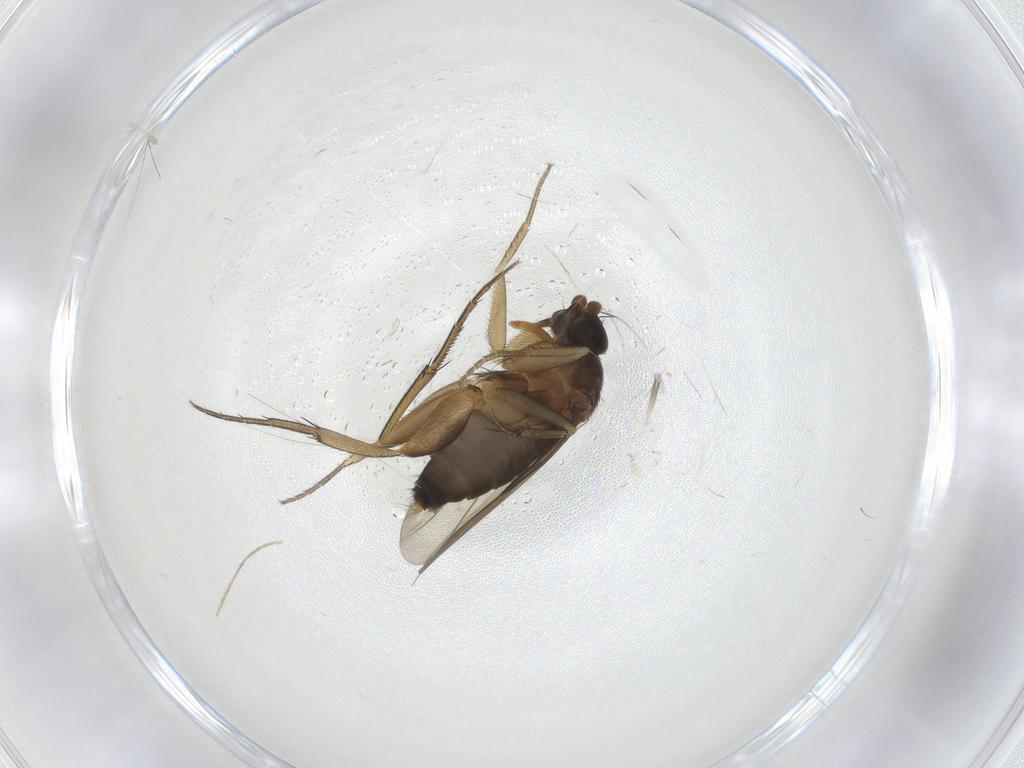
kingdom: Animalia
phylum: Arthropoda
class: Insecta
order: Diptera
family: Phoridae
